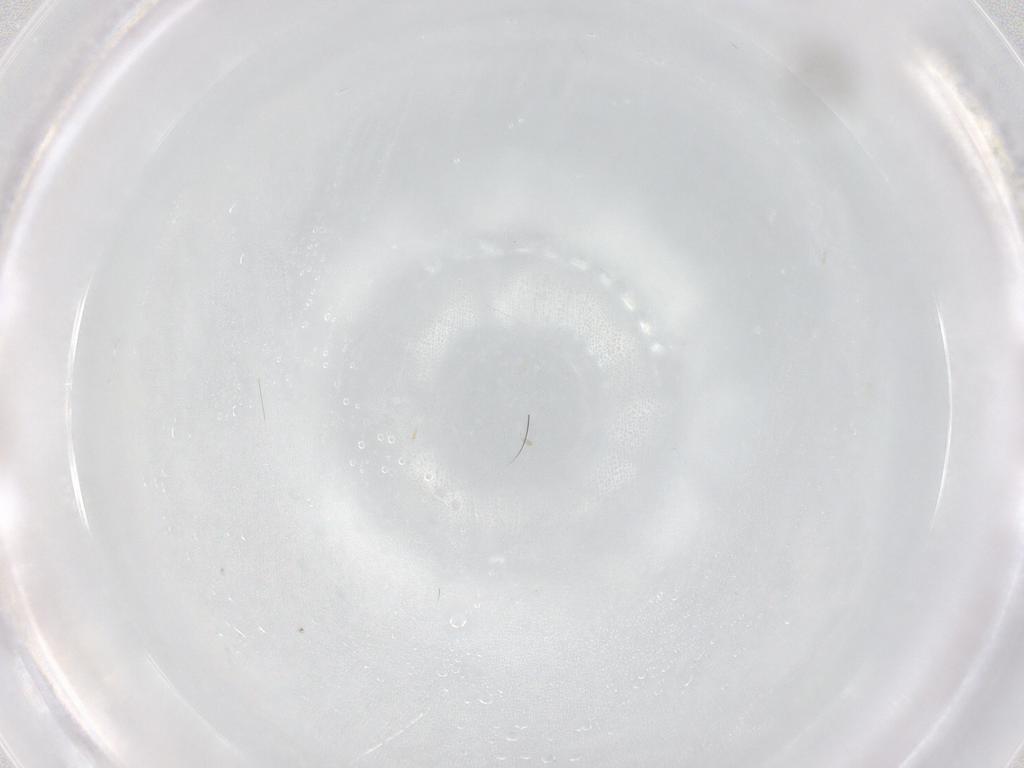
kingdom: Animalia
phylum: Arthropoda
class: Insecta
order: Diptera
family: Cecidomyiidae
